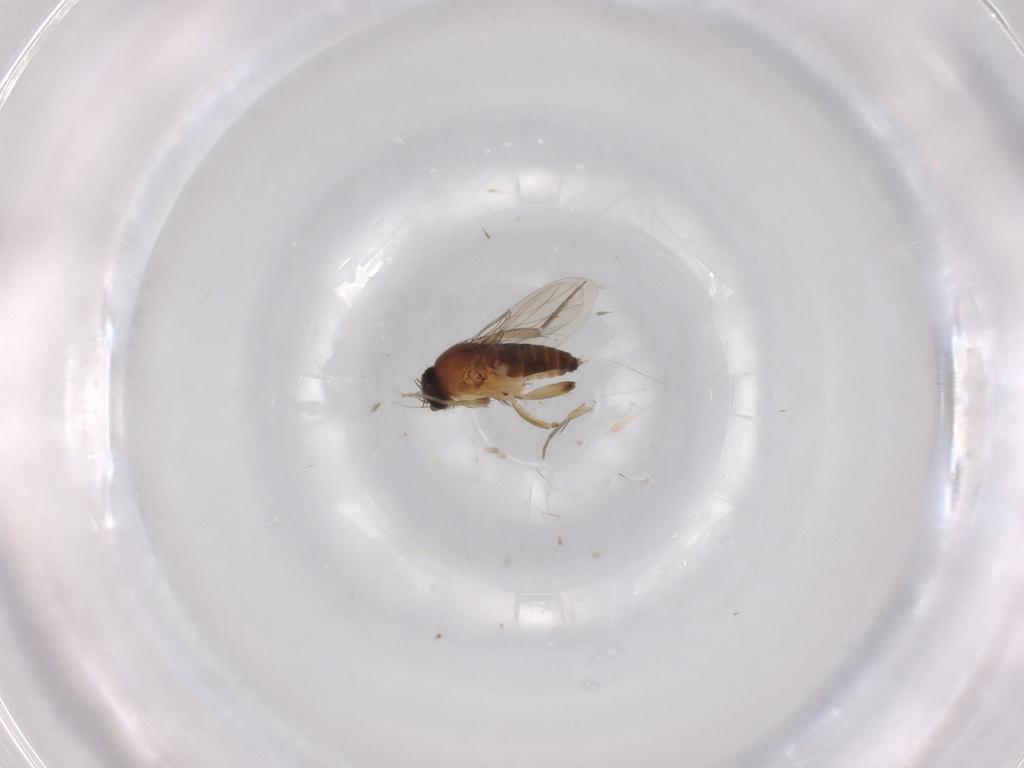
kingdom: Animalia
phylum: Arthropoda
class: Insecta
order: Diptera
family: Phoridae
